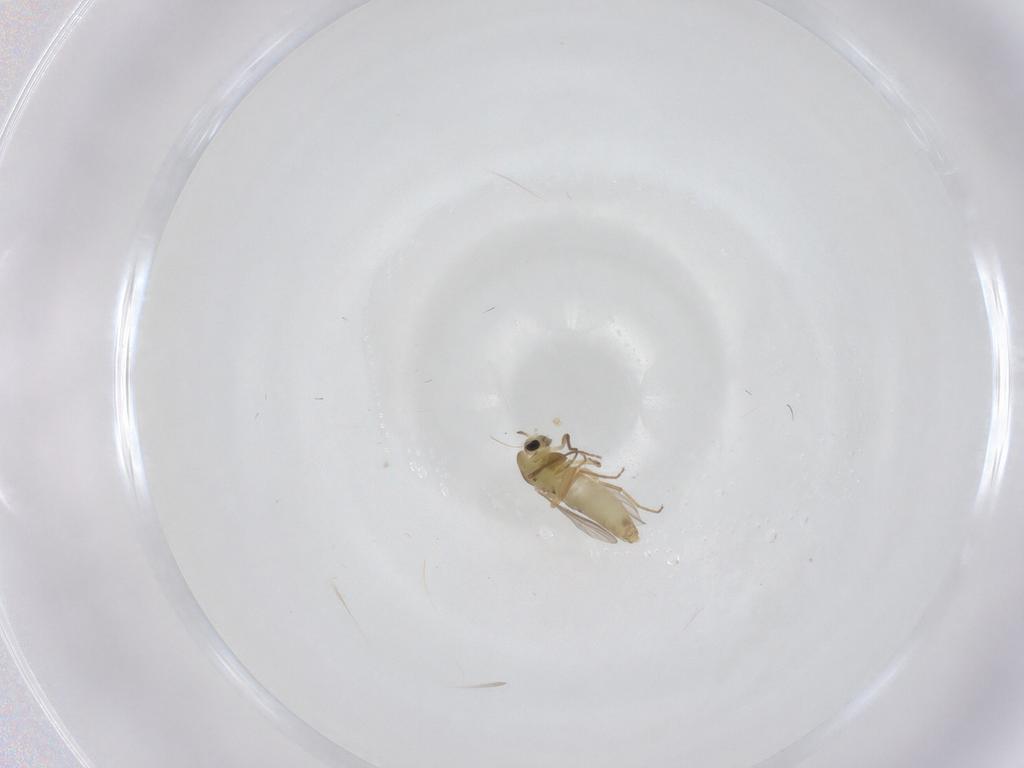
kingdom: Animalia
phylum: Arthropoda
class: Insecta
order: Diptera
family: Chironomidae
